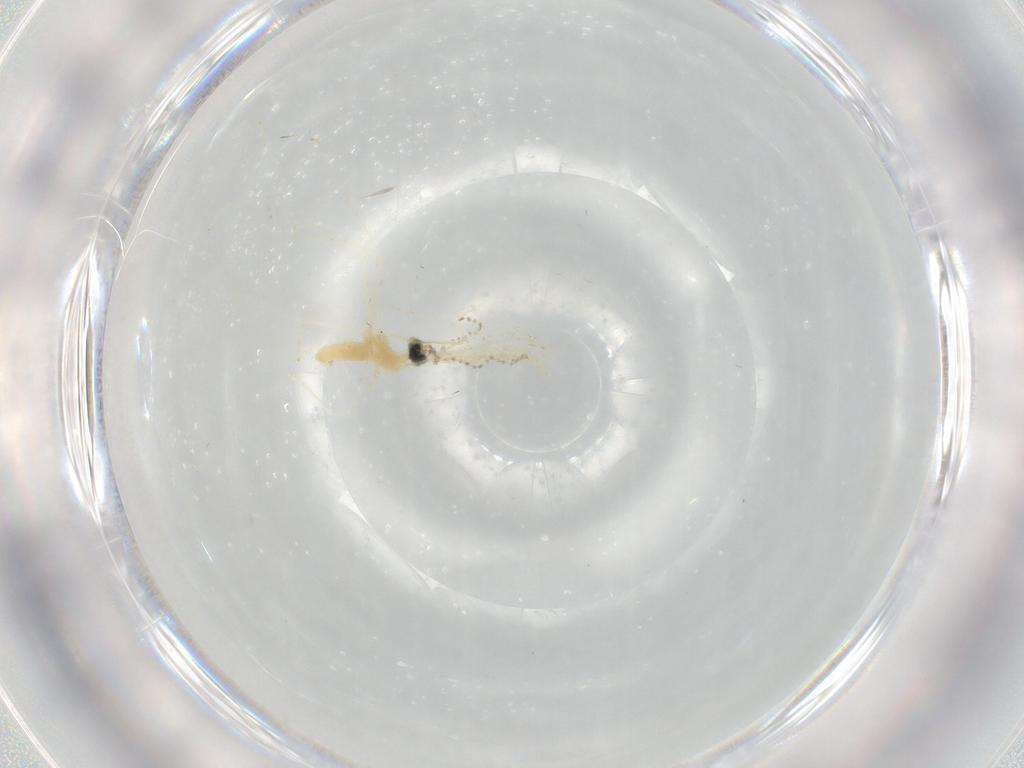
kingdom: Animalia
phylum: Arthropoda
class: Insecta
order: Diptera
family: Cecidomyiidae
